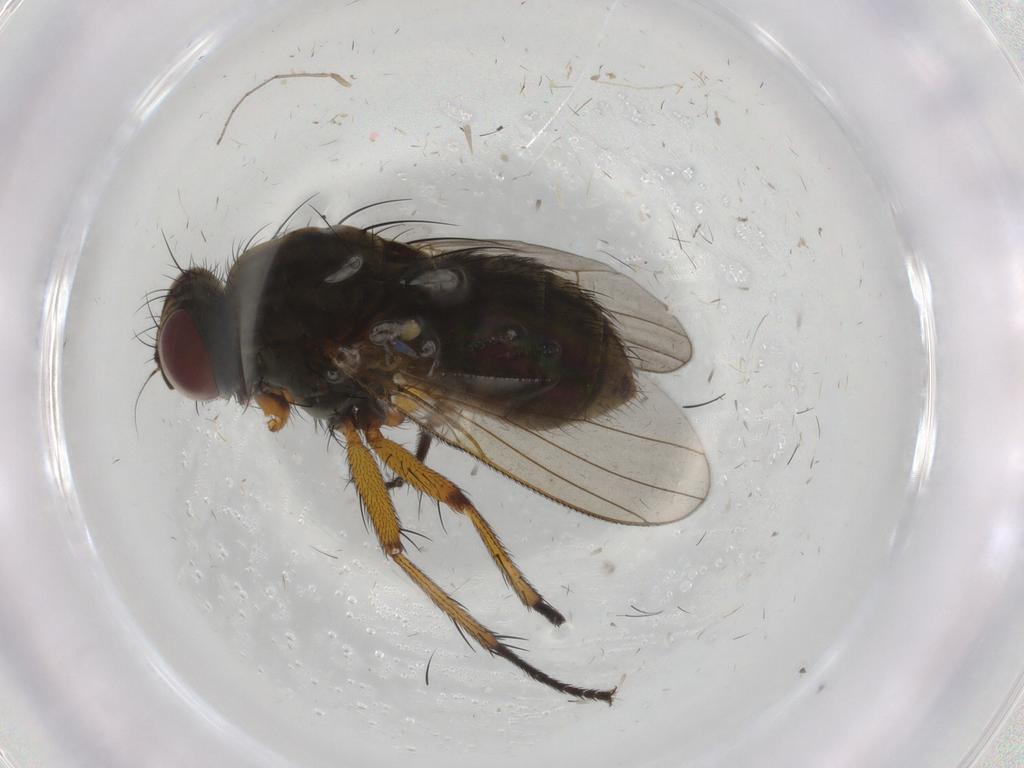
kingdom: Animalia
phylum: Arthropoda
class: Insecta
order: Diptera
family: Muscidae
